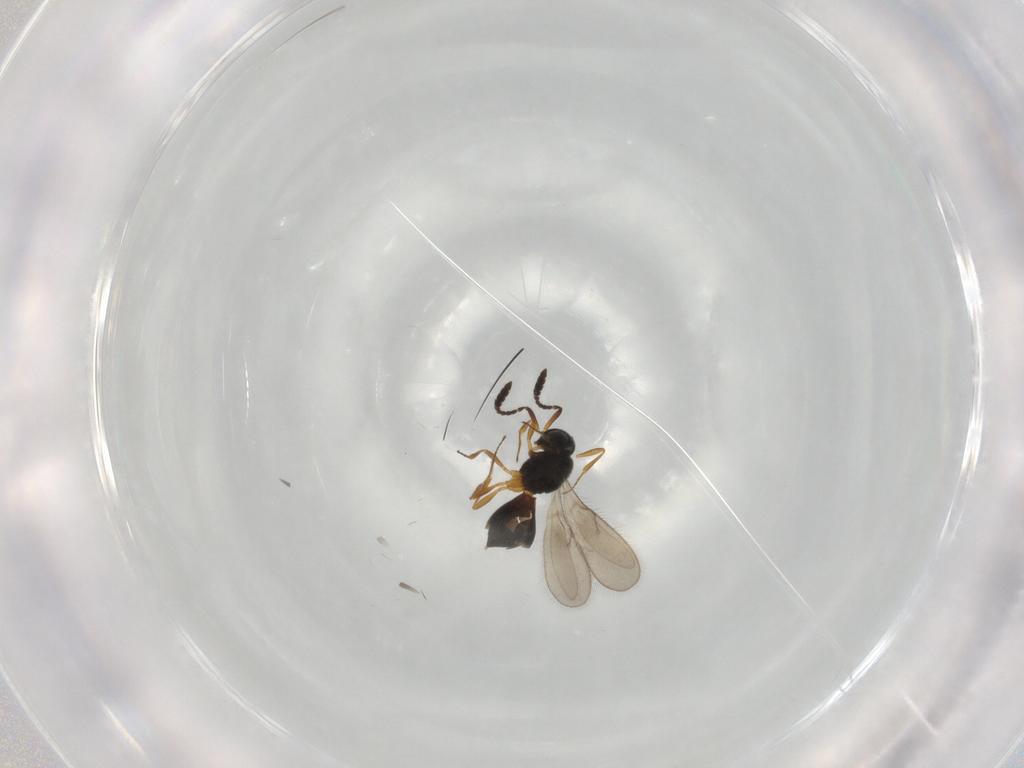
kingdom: Animalia
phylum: Arthropoda
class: Insecta
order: Hymenoptera
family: Scelionidae
